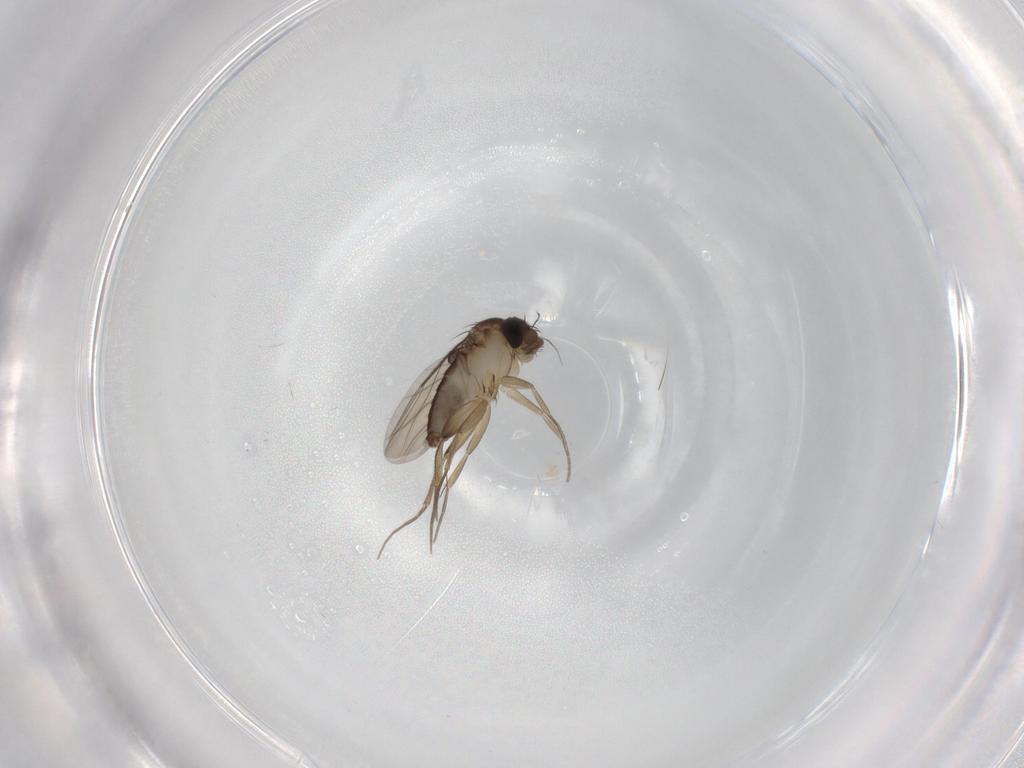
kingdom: Animalia
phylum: Arthropoda
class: Insecta
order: Diptera
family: Phoridae
